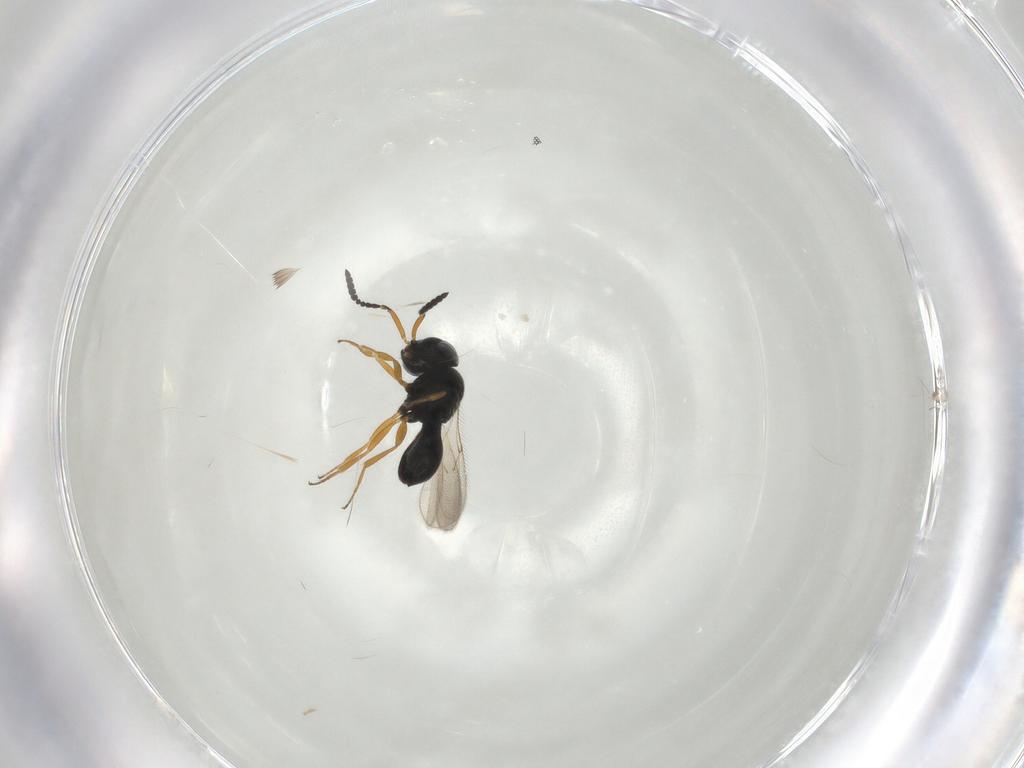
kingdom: Animalia
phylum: Arthropoda
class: Insecta
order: Hymenoptera
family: Scelionidae
